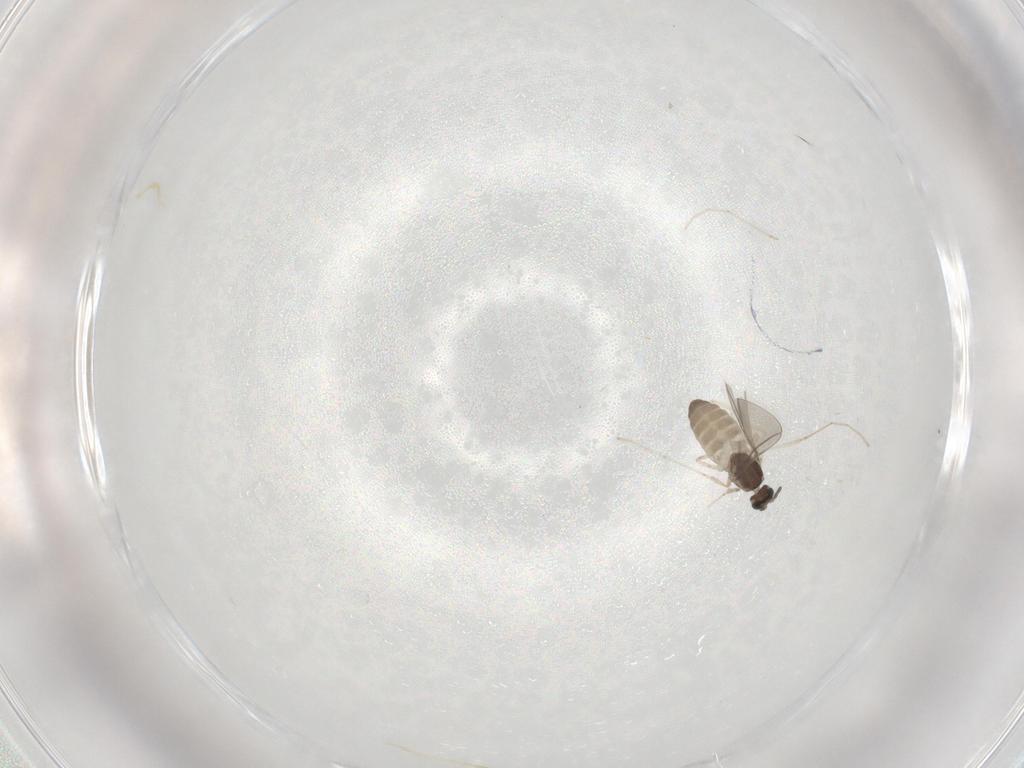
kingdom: Animalia
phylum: Arthropoda
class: Insecta
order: Diptera
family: Cecidomyiidae
